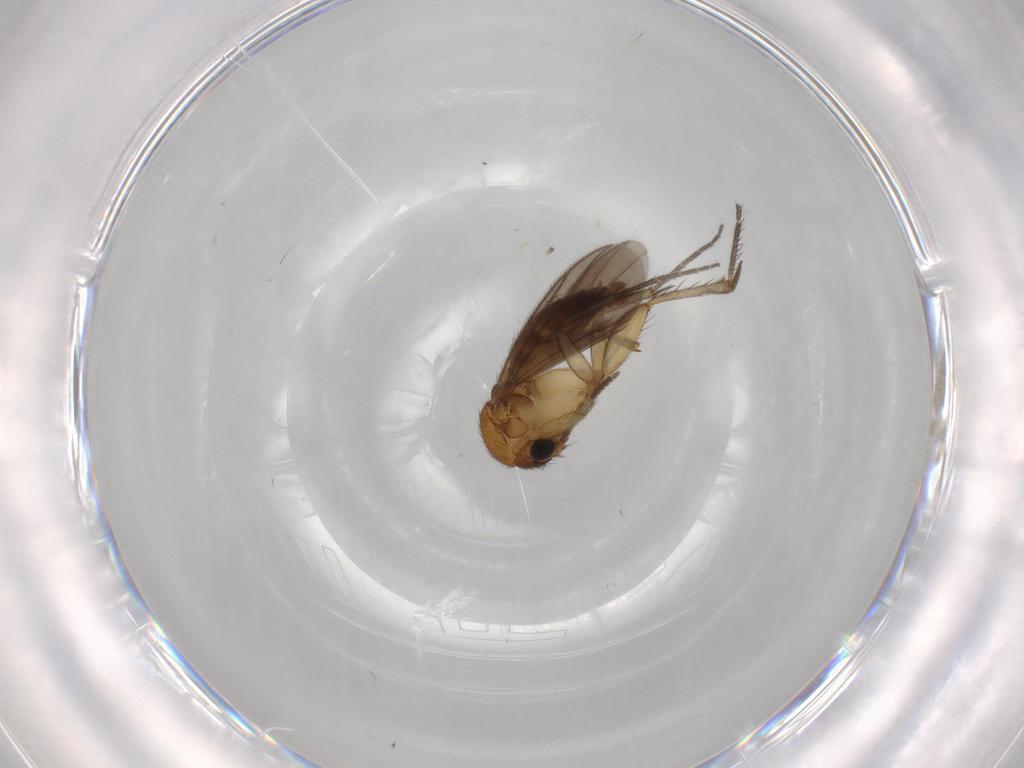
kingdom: Animalia
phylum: Arthropoda
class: Insecta
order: Diptera
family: Mycetophilidae
